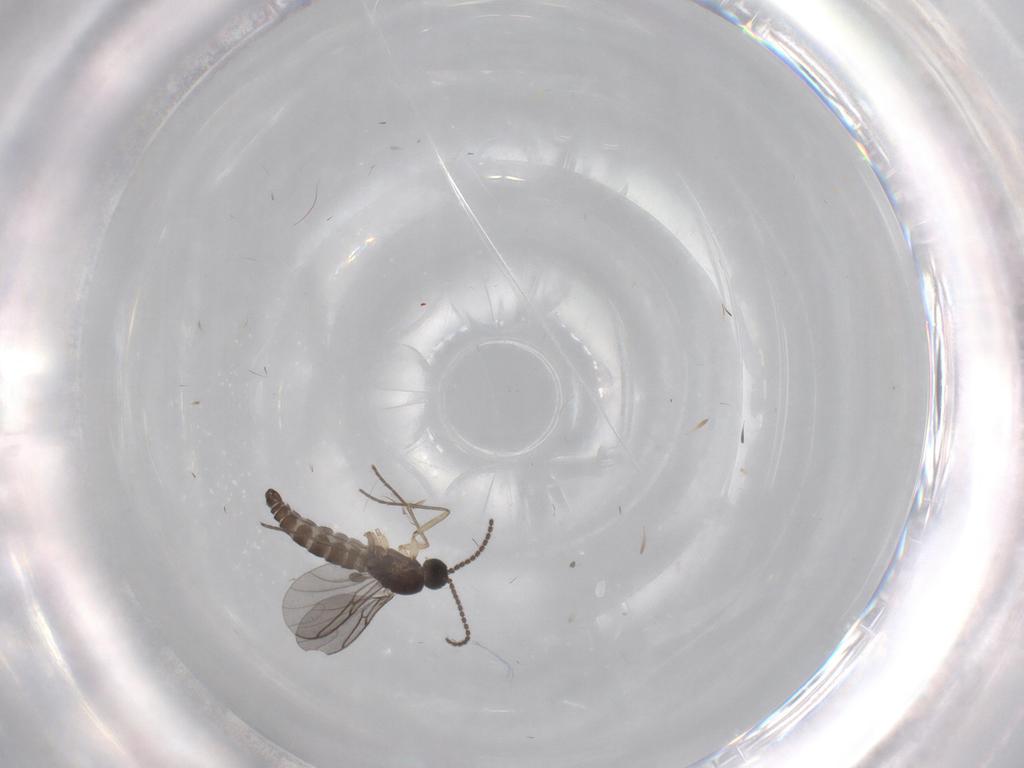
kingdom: Animalia
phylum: Arthropoda
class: Insecta
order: Diptera
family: Sciaridae
